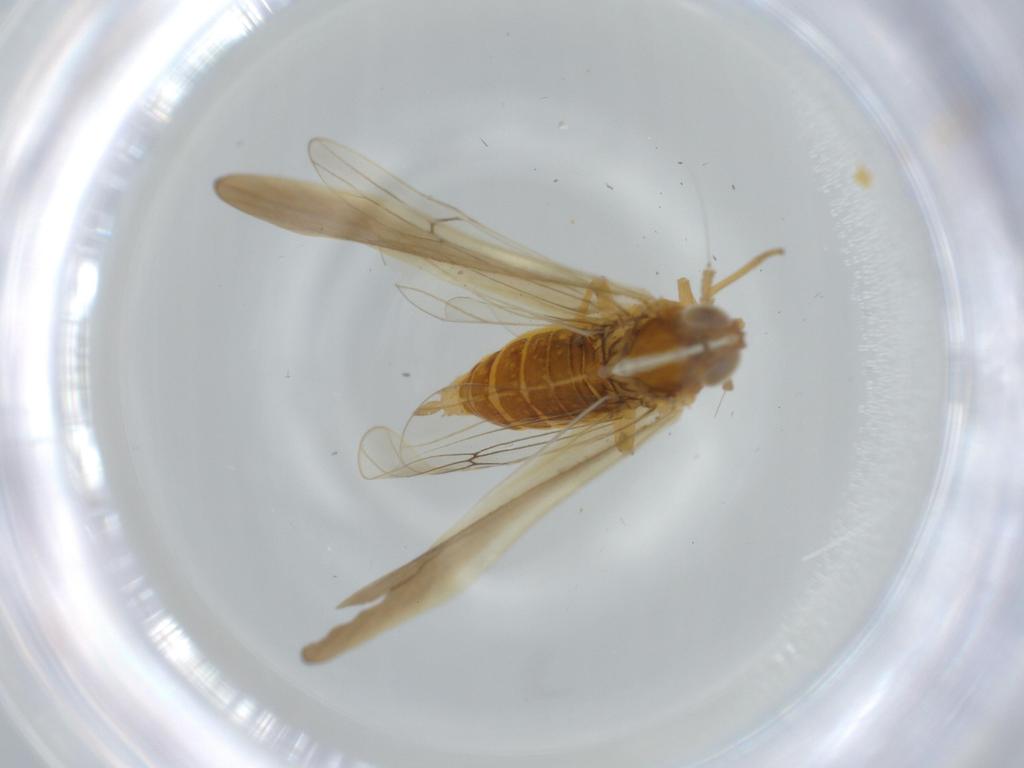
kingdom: Animalia
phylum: Arthropoda
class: Insecta
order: Hemiptera
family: Delphacidae
